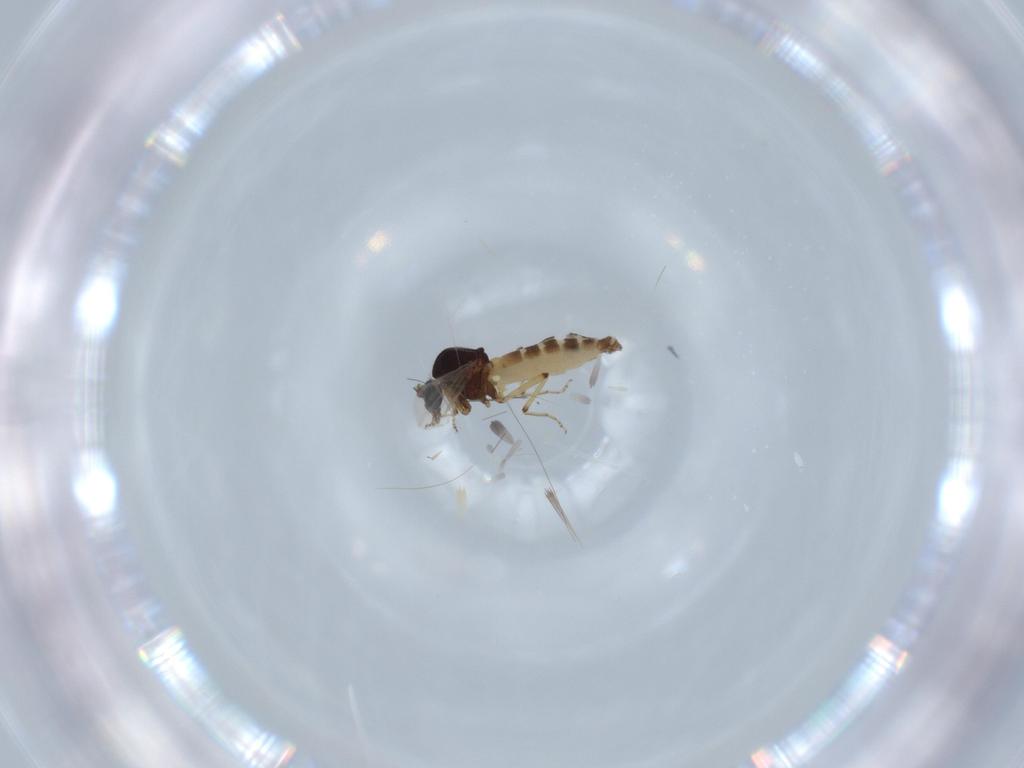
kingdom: Animalia
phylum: Arthropoda
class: Insecta
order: Diptera
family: Ceratopogonidae
